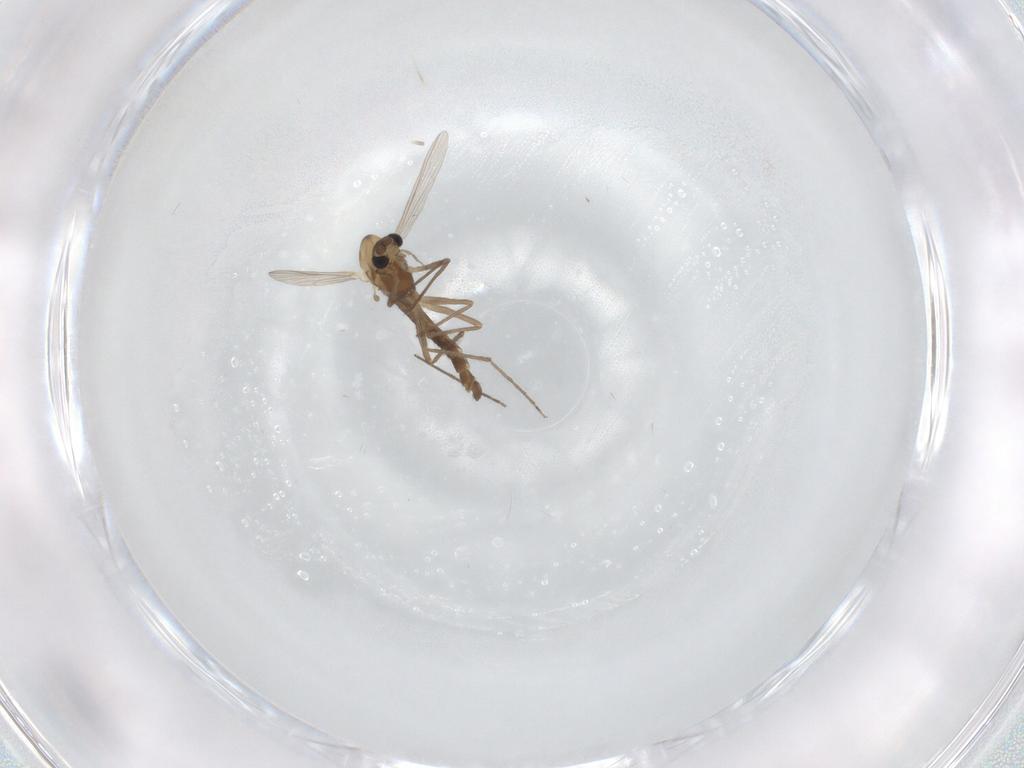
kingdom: Animalia
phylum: Arthropoda
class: Insecta
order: Diptera
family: Chironomidae
